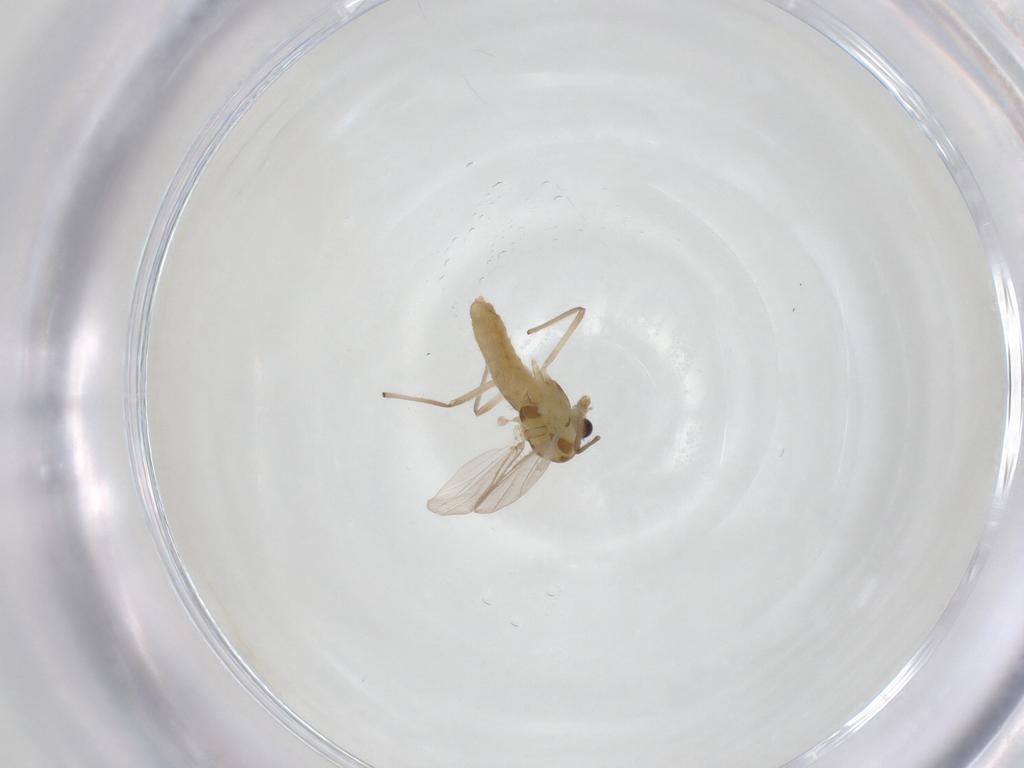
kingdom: Animalia
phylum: Arthropoda
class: Insecta
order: Diptera
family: Chironomidae
